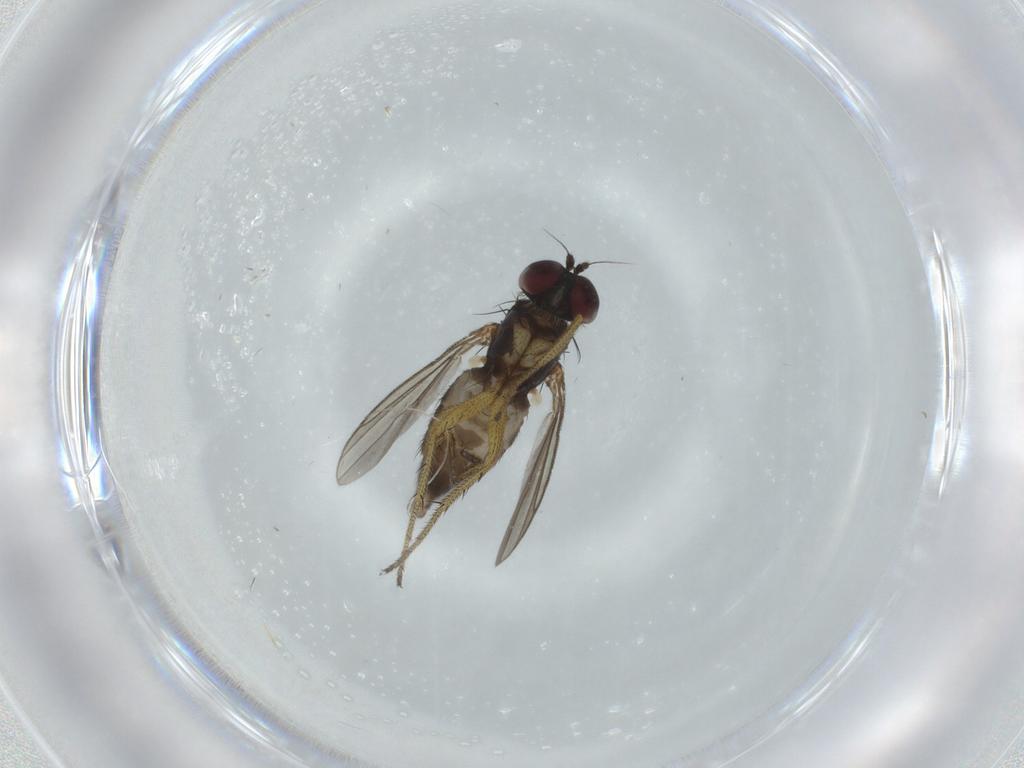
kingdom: Animalia
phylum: Arthropoda
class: Insecta
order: Diptera
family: Dolichopodidae
